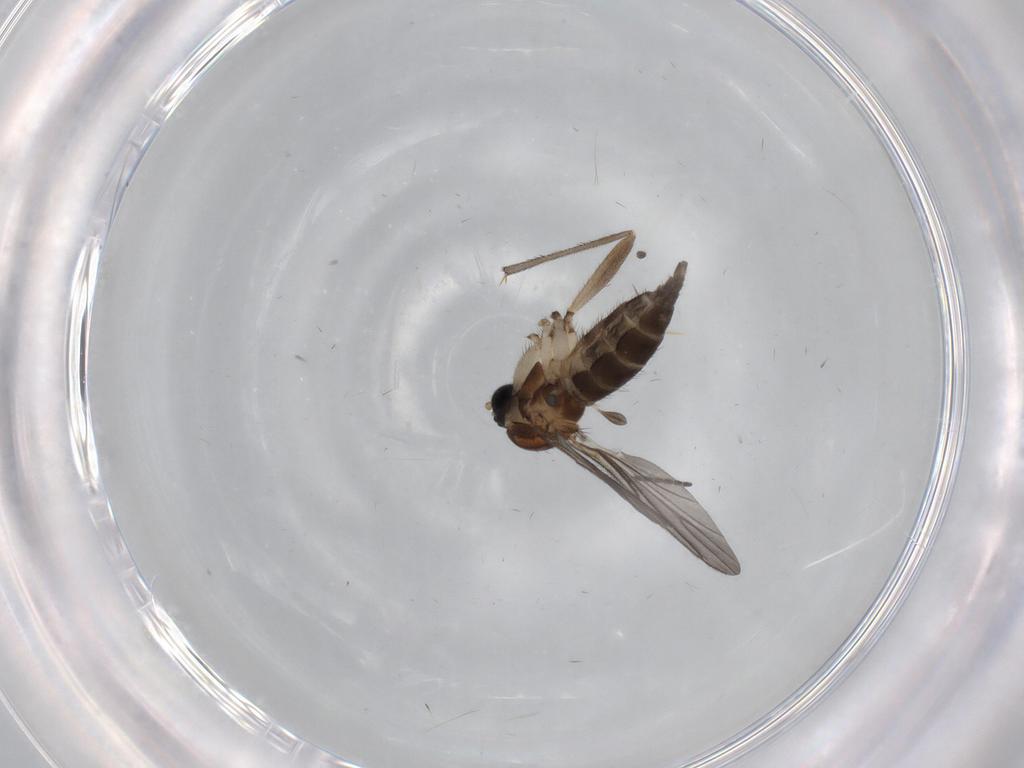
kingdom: Animalia
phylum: Arthropoda
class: Insecta
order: Diptera
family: Sciaridae
